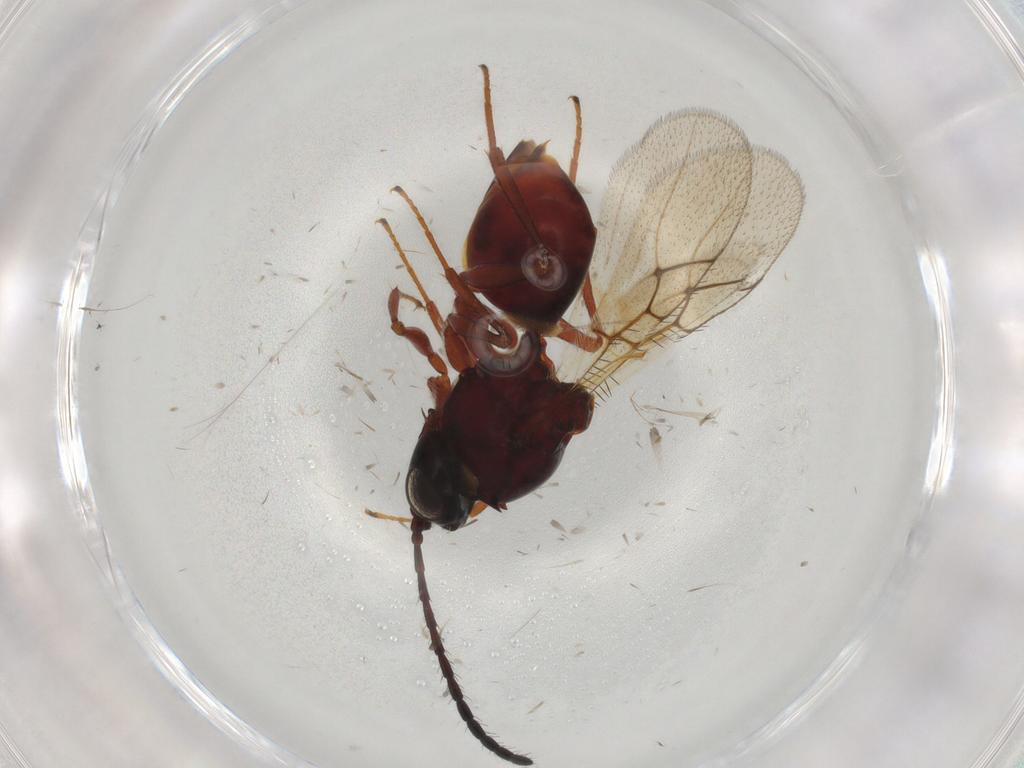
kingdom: Animalia
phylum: Arthropoda
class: Insecta
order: Hymenoptera
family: Figitidae
